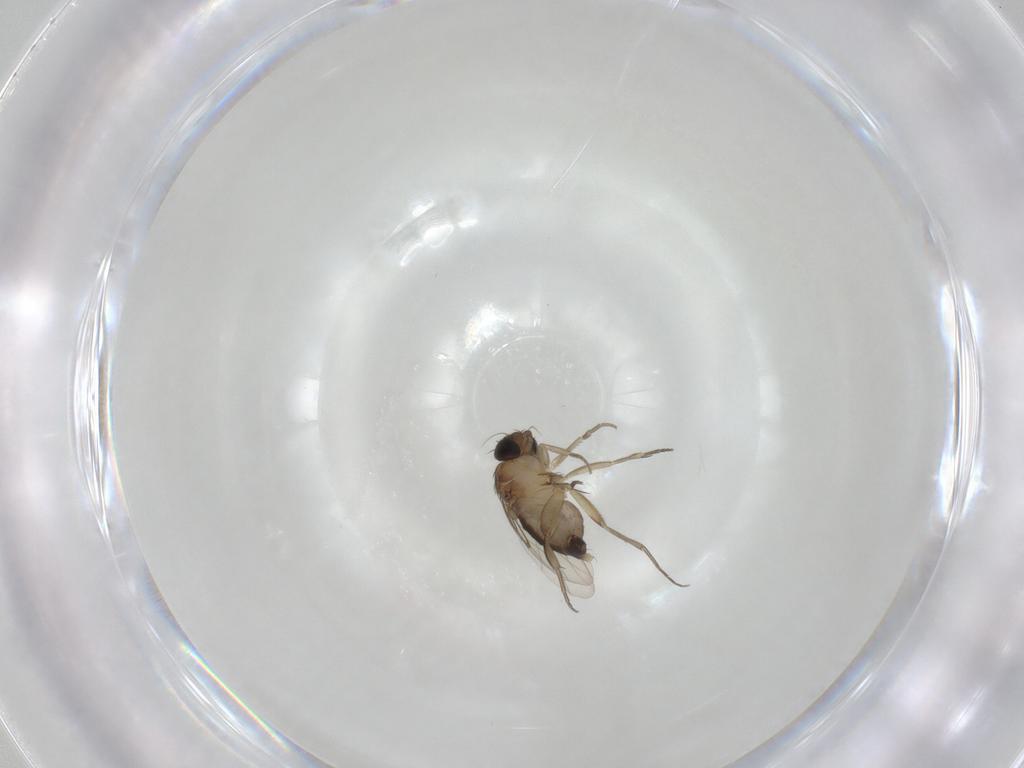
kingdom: Animalia
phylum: Arthropoda
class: Insecta
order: Diptera
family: Phoridae
